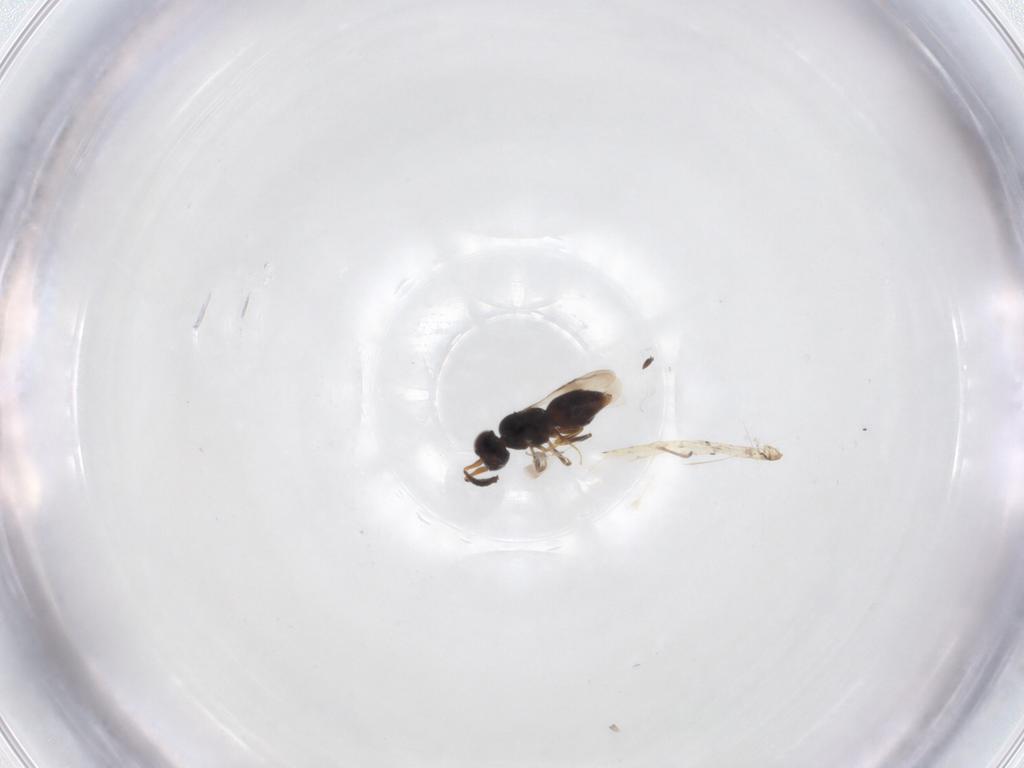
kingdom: Animalia
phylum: Arthropoda
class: Insecta
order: Hymenoptera
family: Ceraphronidae
